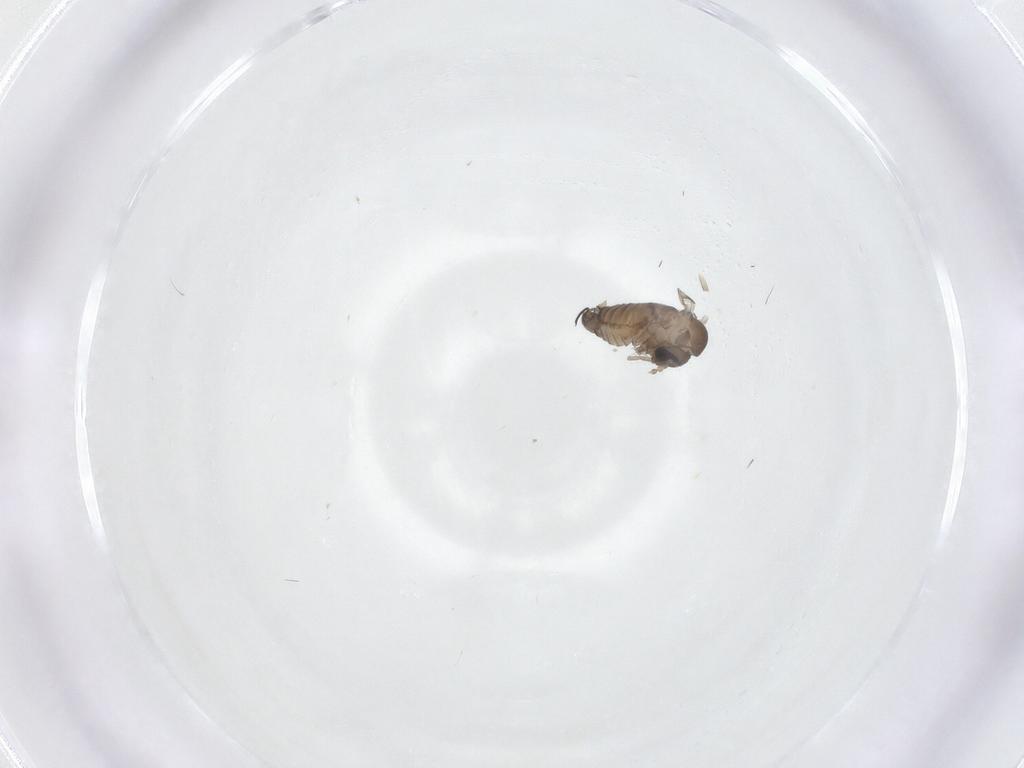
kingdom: Animalia
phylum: Arthropoda
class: Insecta
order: Diptera
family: Psychodidae
